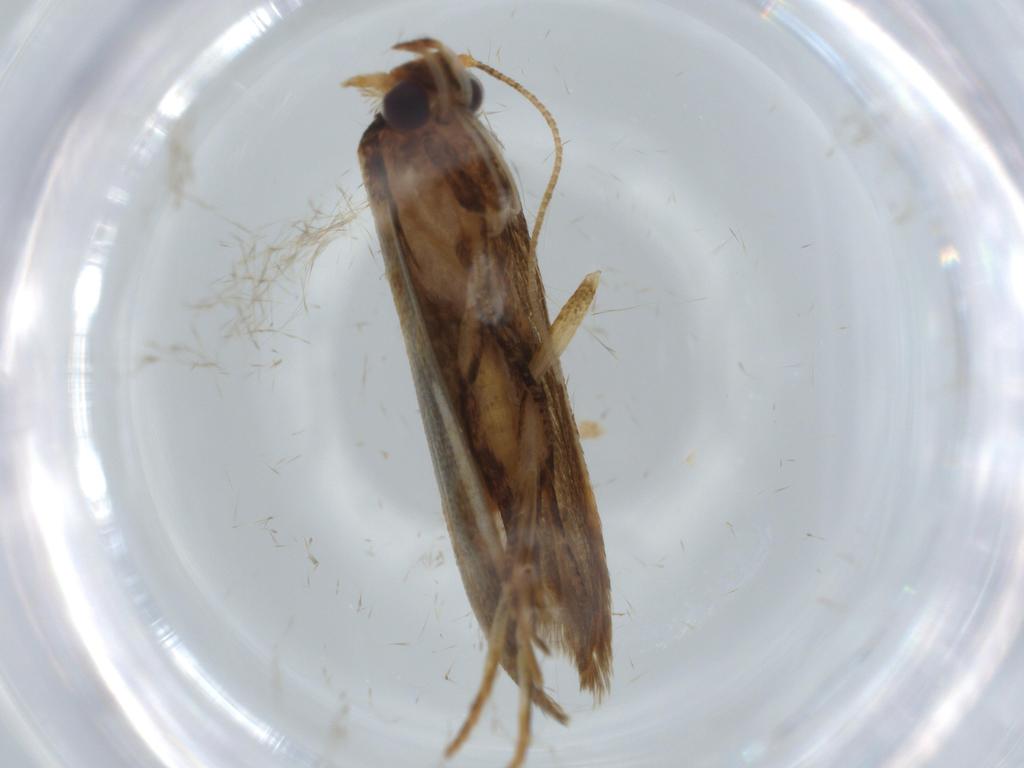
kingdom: Animalia
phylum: Arthropoda
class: Insecta
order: Lepidoptera
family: Coleophoridae
